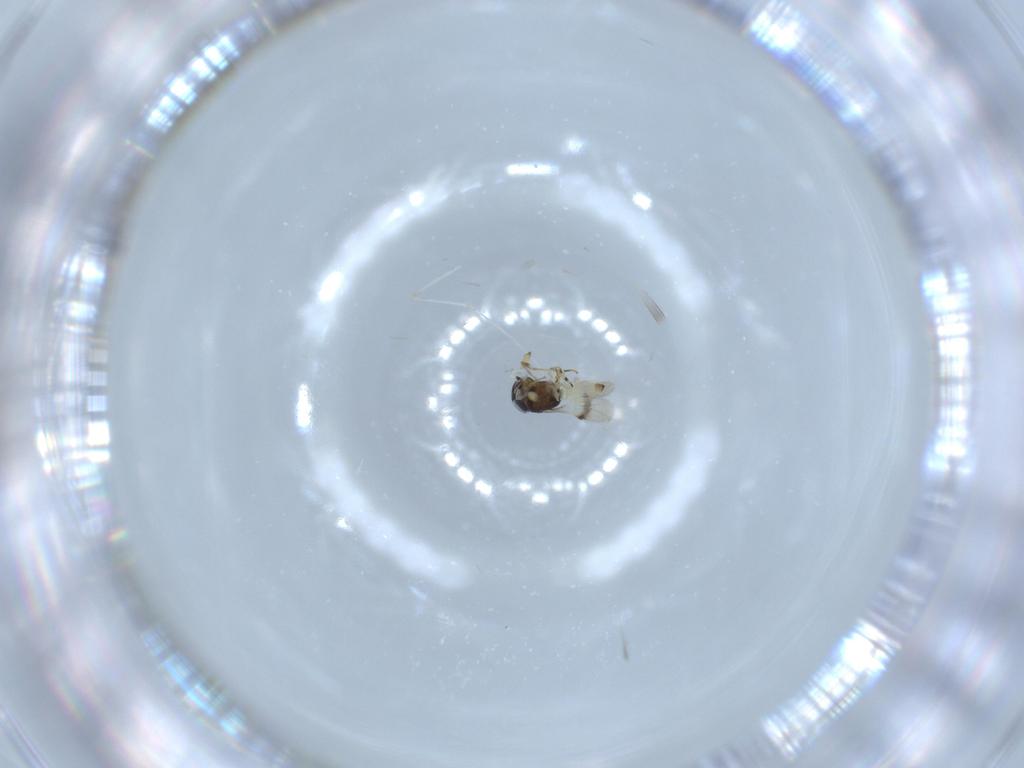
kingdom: Animalia
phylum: Arthropoda
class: Insecta
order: Hymenoptera
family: Scelionidae
